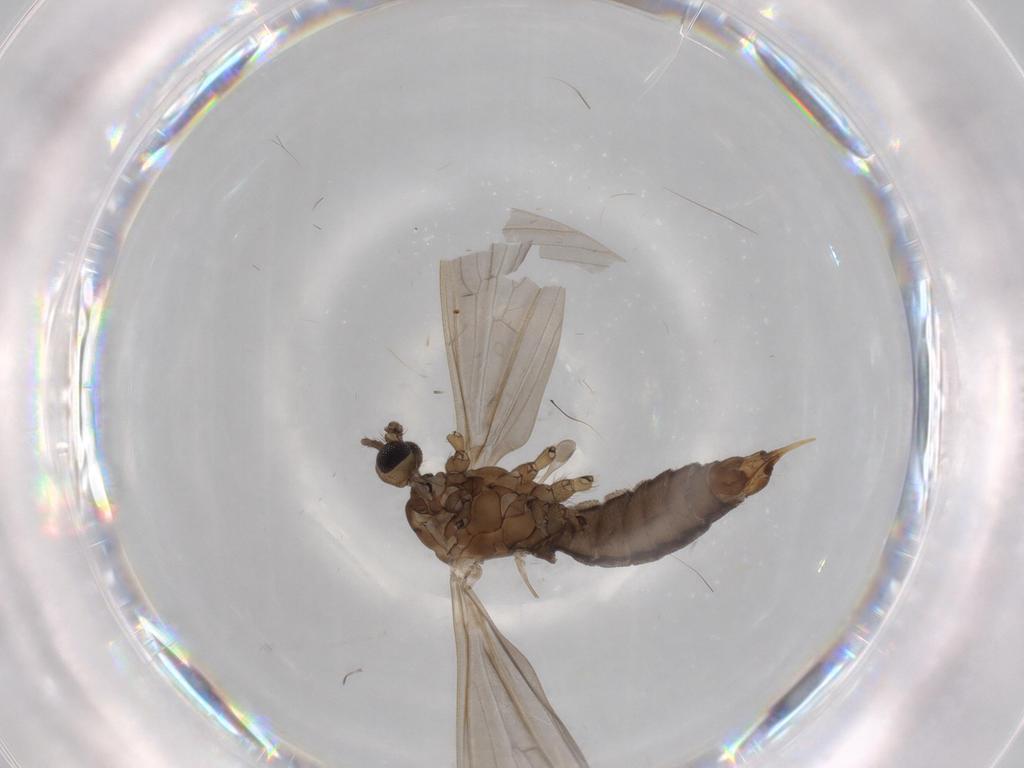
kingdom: Animalia
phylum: Arthropoda
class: Insecta
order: Diptera
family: Limoniidae
